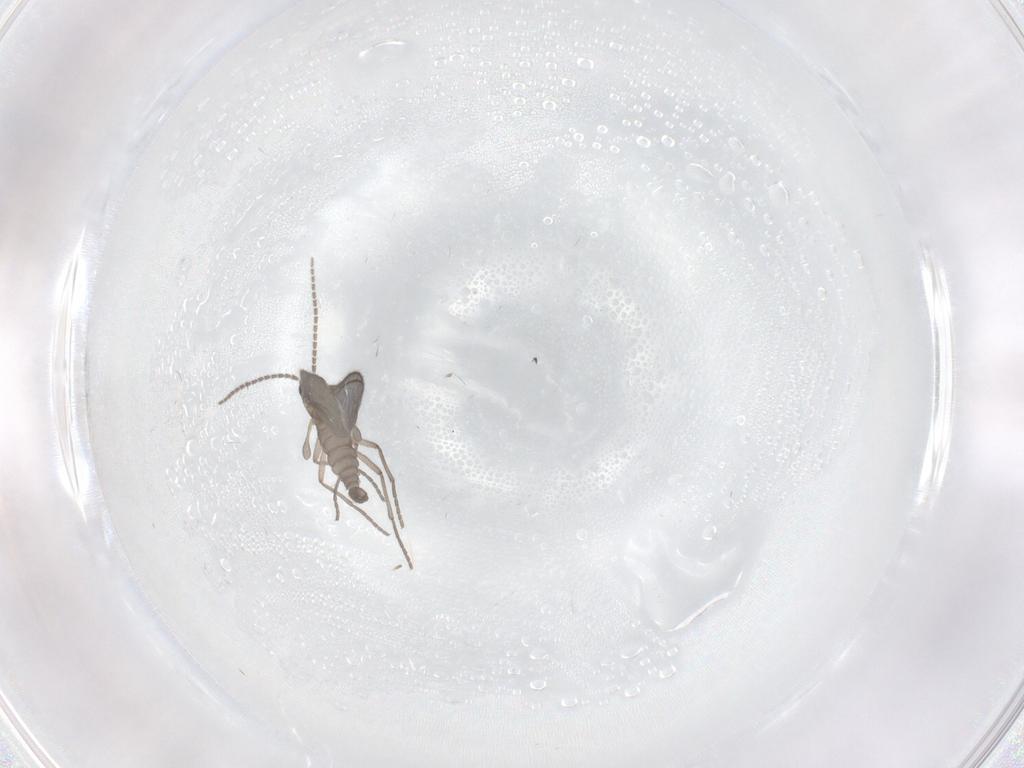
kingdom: Animalia
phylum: Arthropoda
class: Insecta
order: Diptera
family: Sciaridae
